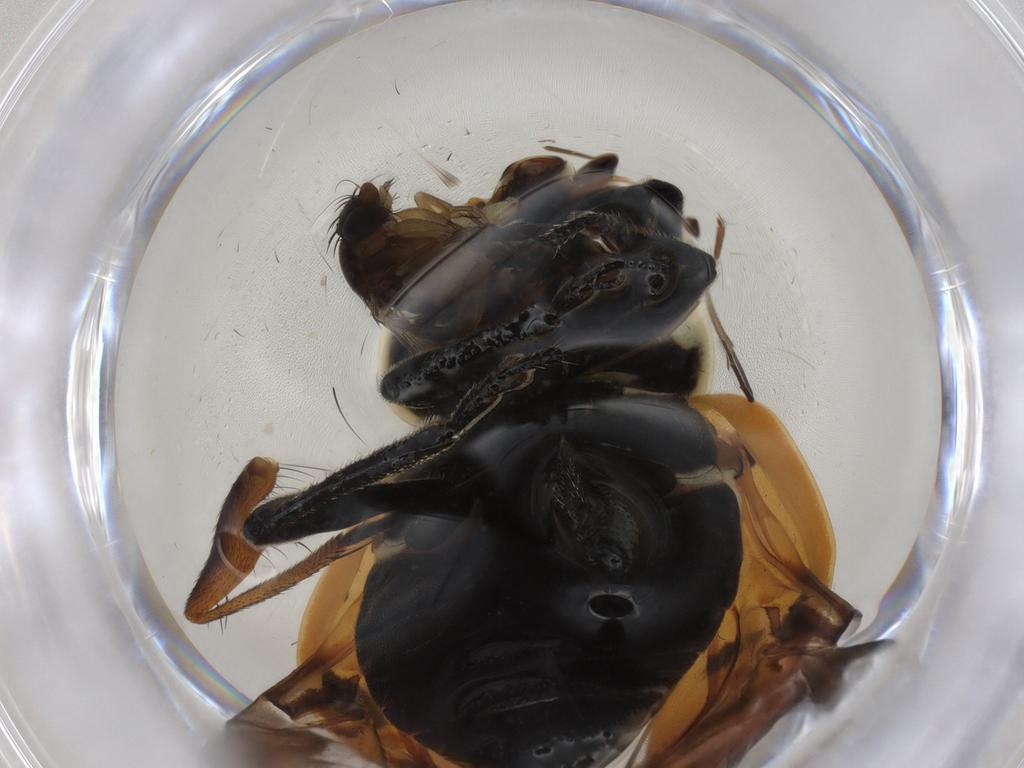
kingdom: Animalia
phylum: Arthropoda
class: Insecta
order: Coleoptera
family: Coccinellidae
